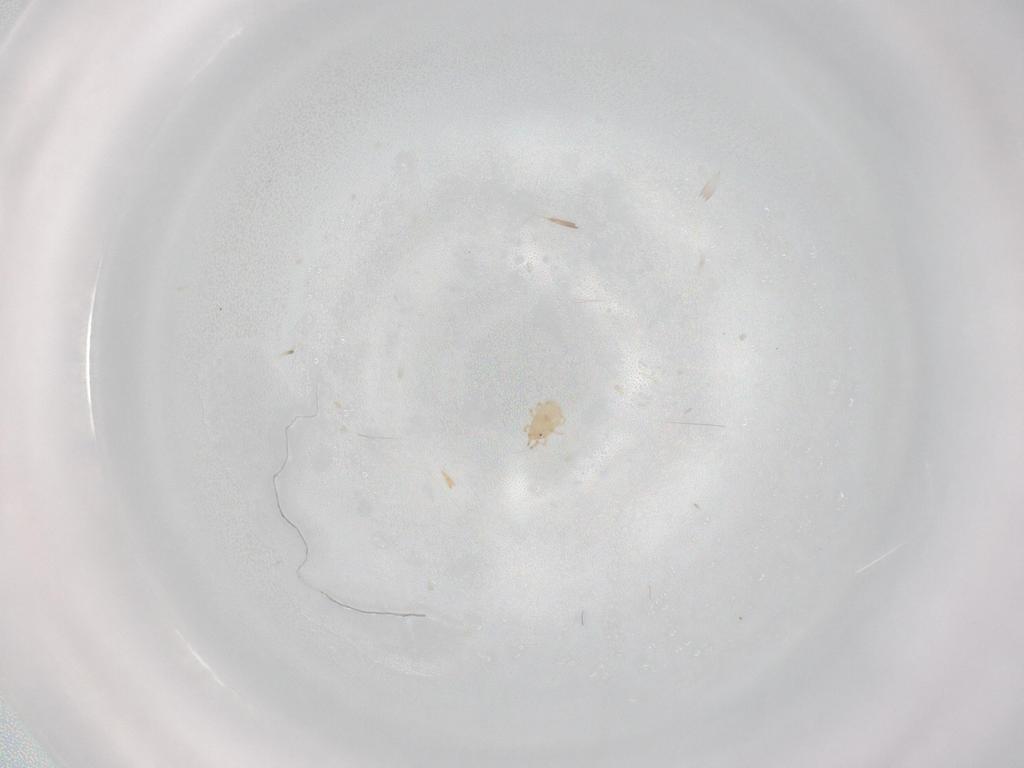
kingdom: Animalia
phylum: Arthropoda
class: Arachnida
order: Mesostigmata
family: Ameroseiidae
